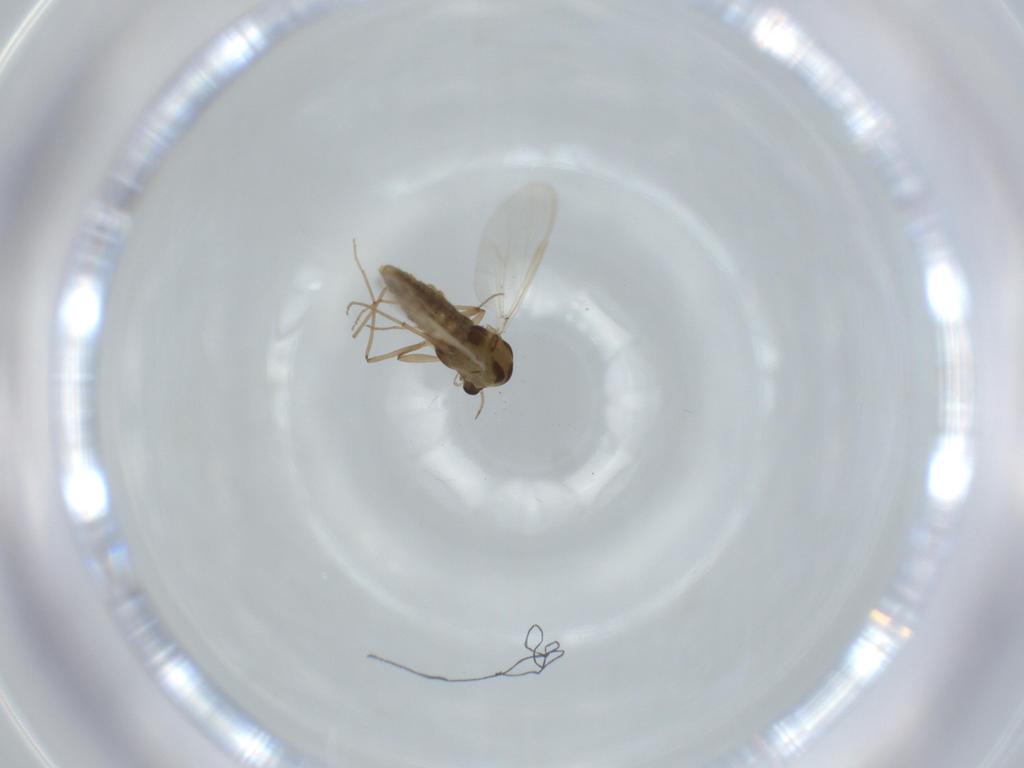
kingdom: Animalia
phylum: Arthropoda
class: Insecta
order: Diptera
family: Chironomidae
